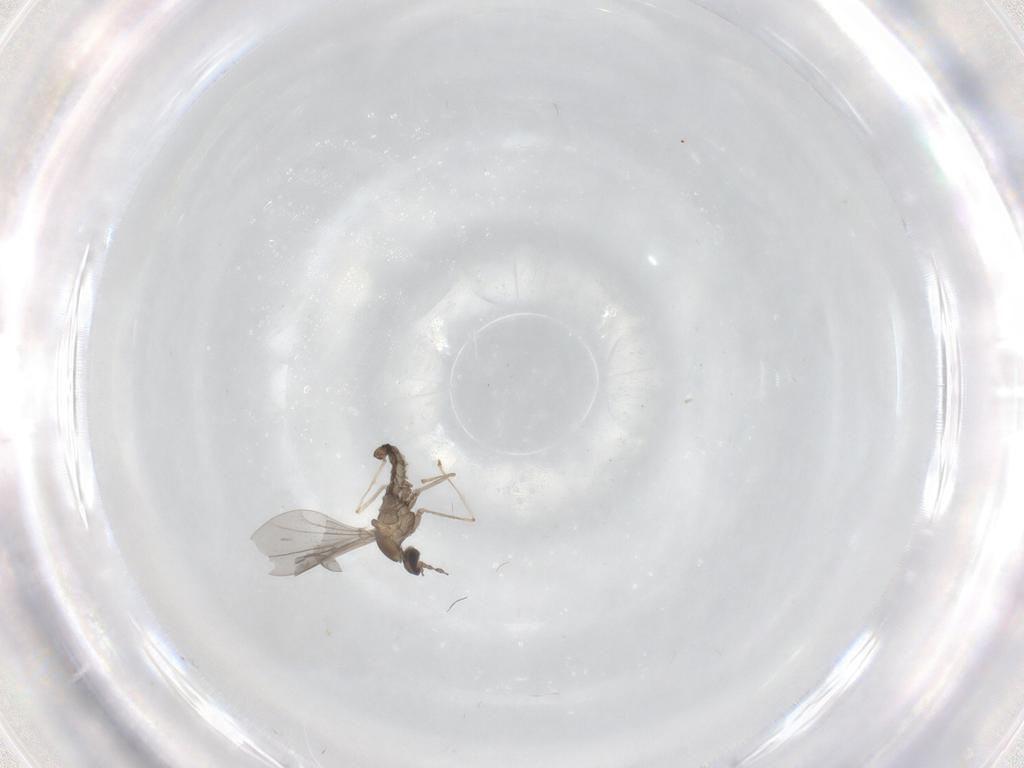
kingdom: Animalia
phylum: Arthropoda
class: Insecta
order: Diptera
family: Cecidomyiidae
